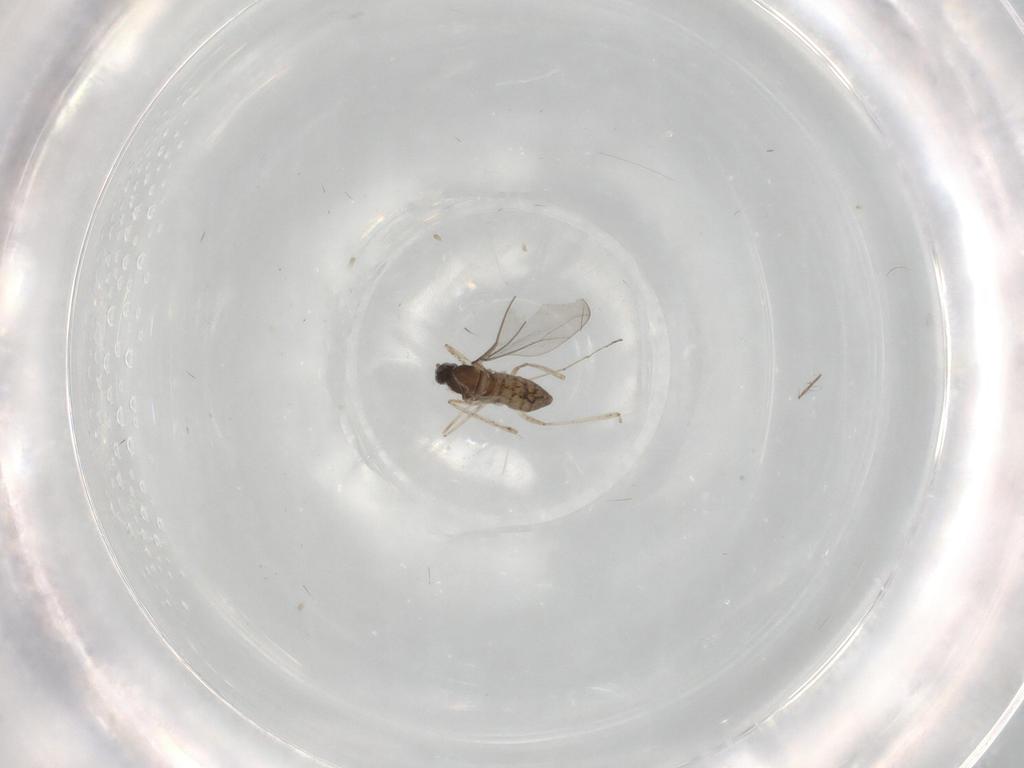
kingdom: Animalia
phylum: Arthropoda
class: Insecta
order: Diptera
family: Cecidomyiidae
